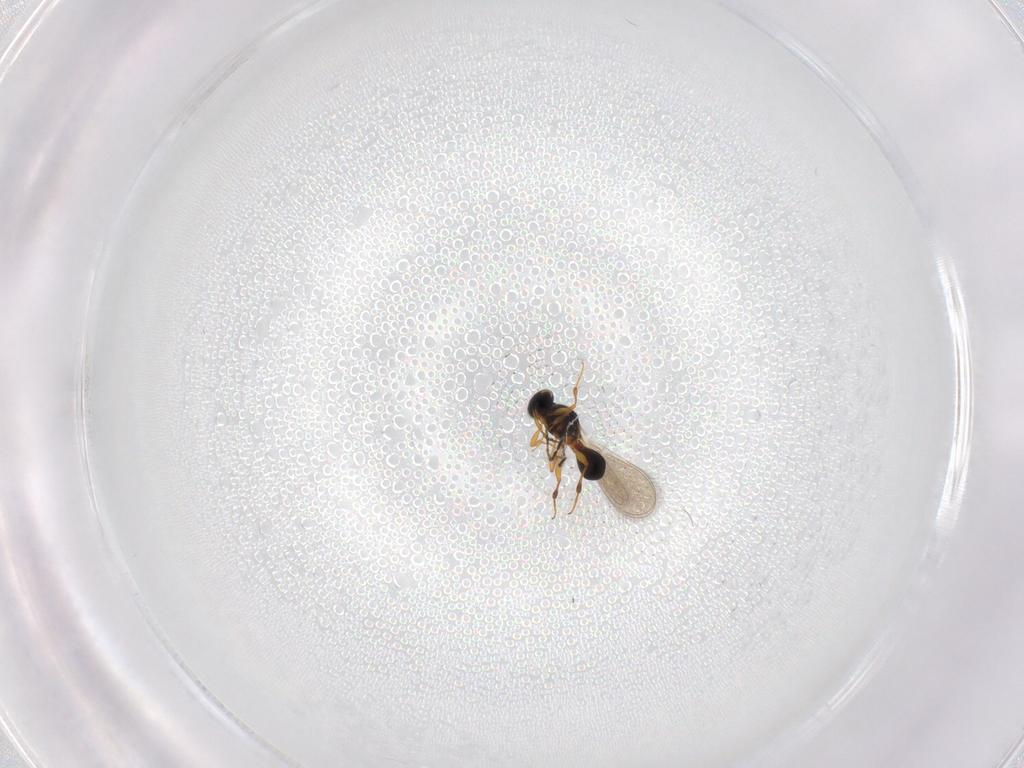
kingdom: Animalia
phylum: Arthropoda
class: Insecta
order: Hymenoptera
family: Platygastridae
